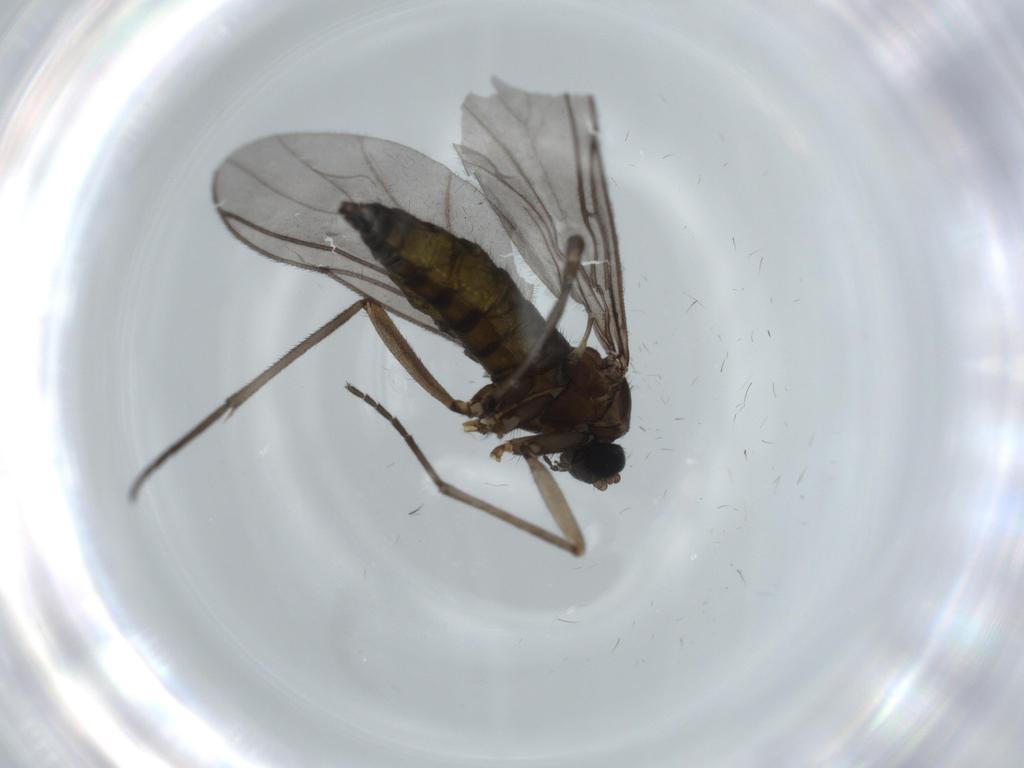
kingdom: Animalia
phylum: Arthropoda
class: Insecta
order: Diptera
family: Sciaridae
